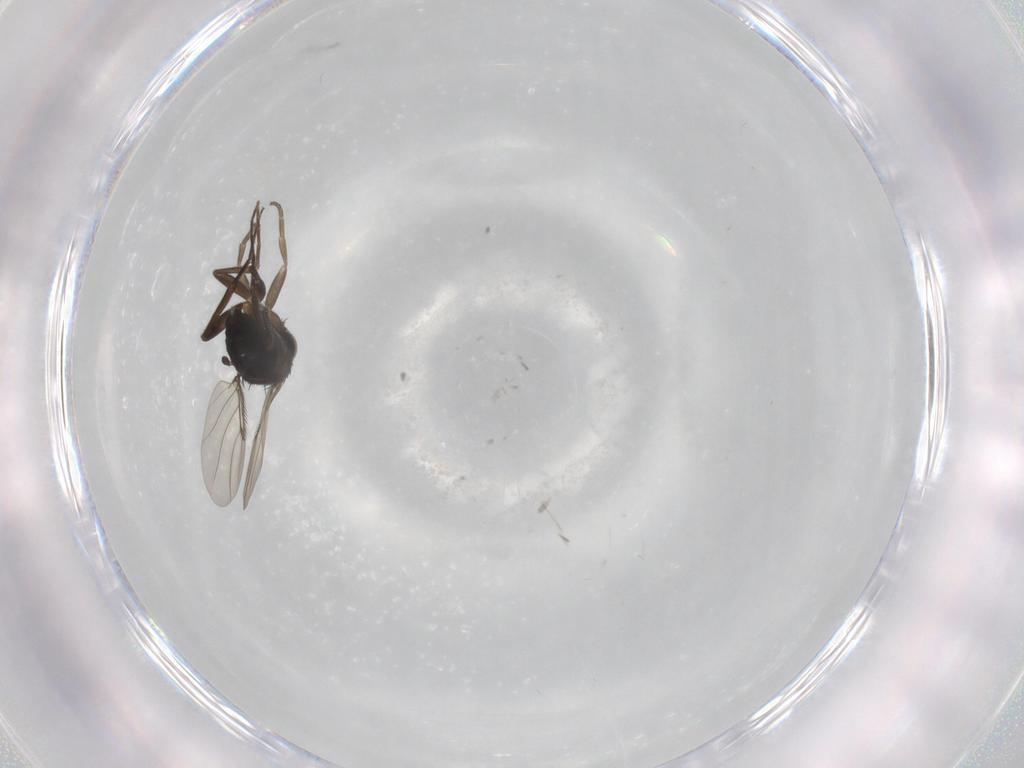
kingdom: Animalia
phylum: Arthropoda
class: Insecta
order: Diptera
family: Phoridae
